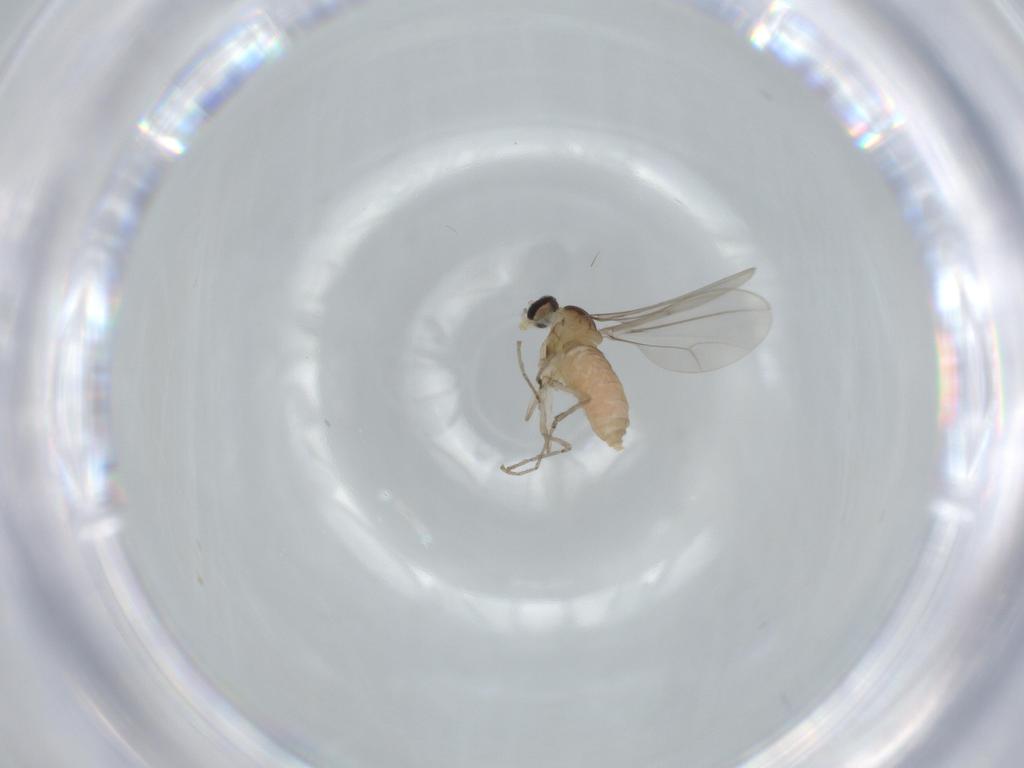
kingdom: Animalia
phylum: Arthropoda
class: Insecta
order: Diptera
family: Cecidomyiidae
